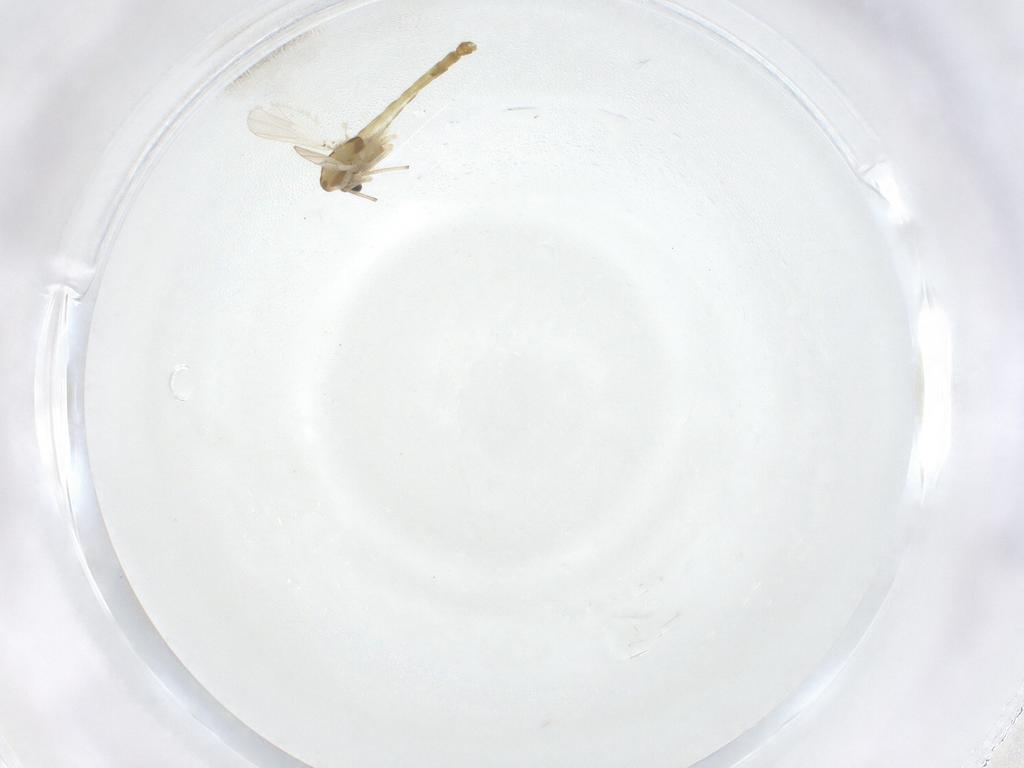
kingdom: Animalia
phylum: Arthropoda
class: Insecta
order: Diptera
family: Chironomidae
